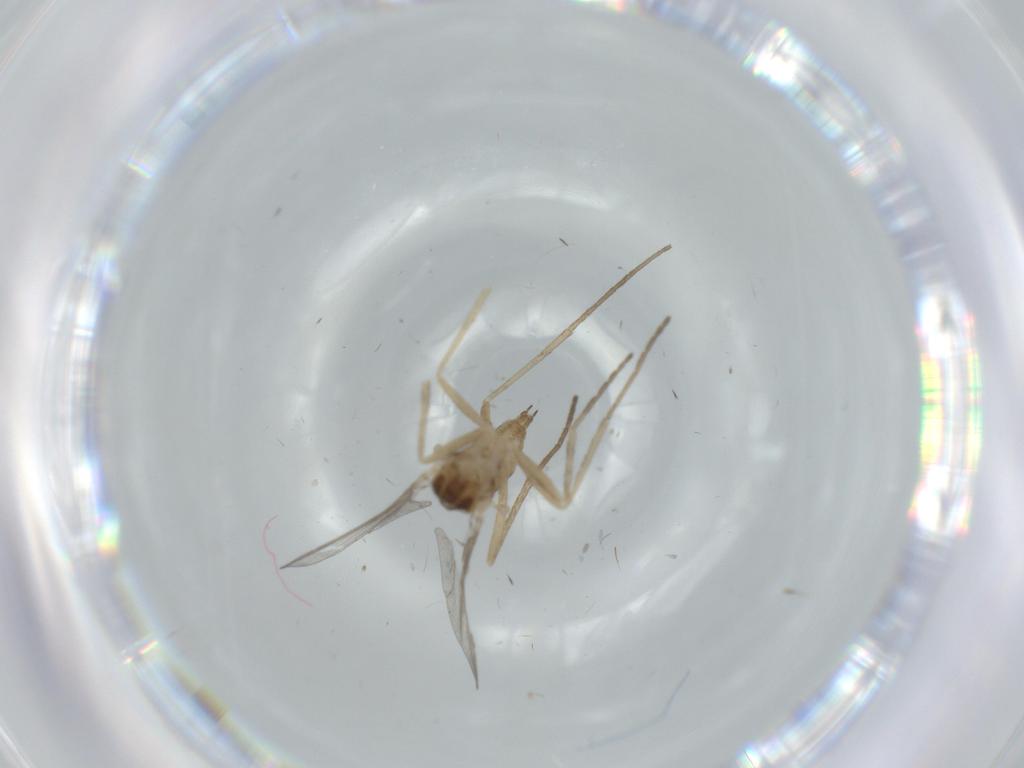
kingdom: Animalia
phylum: Arthropoda
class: Insecta
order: Diptera
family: Cecidomyiidae
